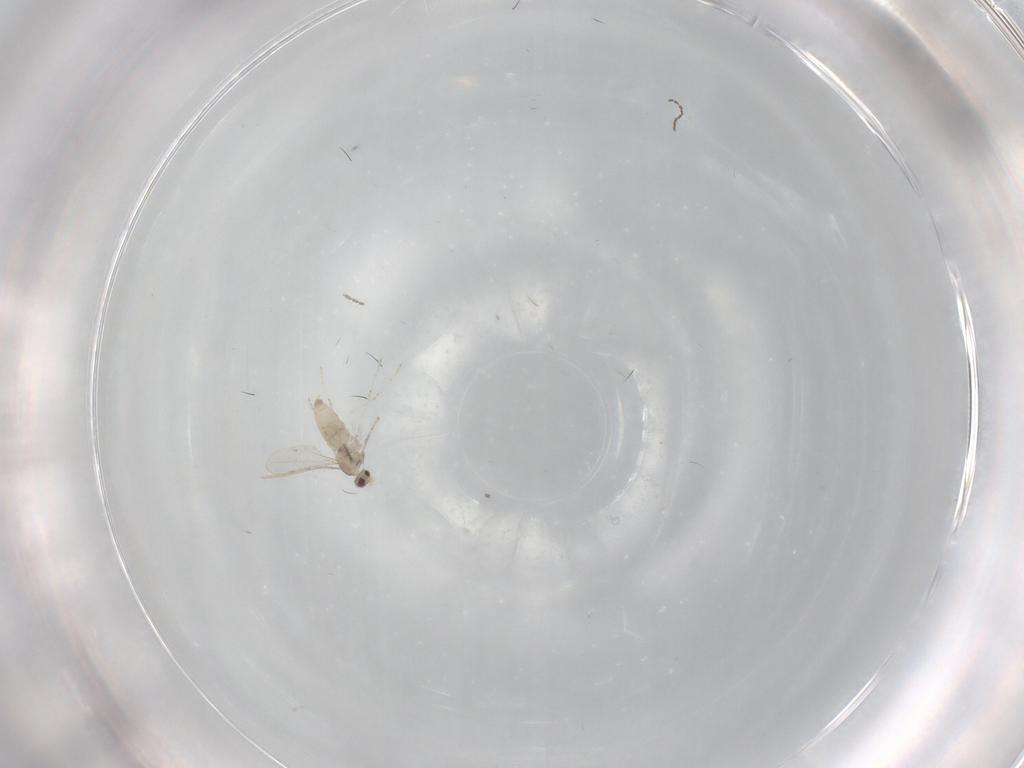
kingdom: Animalia
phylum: Arthropoda
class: Insecta
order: Diptera
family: Cecidomyiidae
